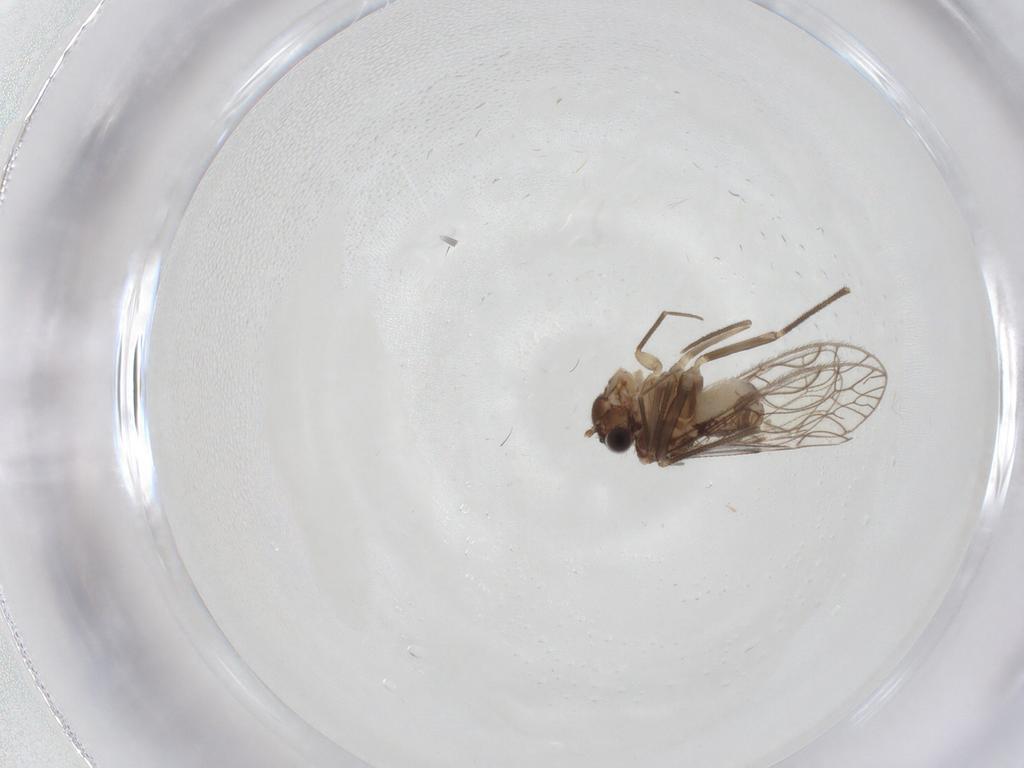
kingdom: Animalia
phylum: Arthropoda
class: Insecta
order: Psocodea
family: Epipsocidae
